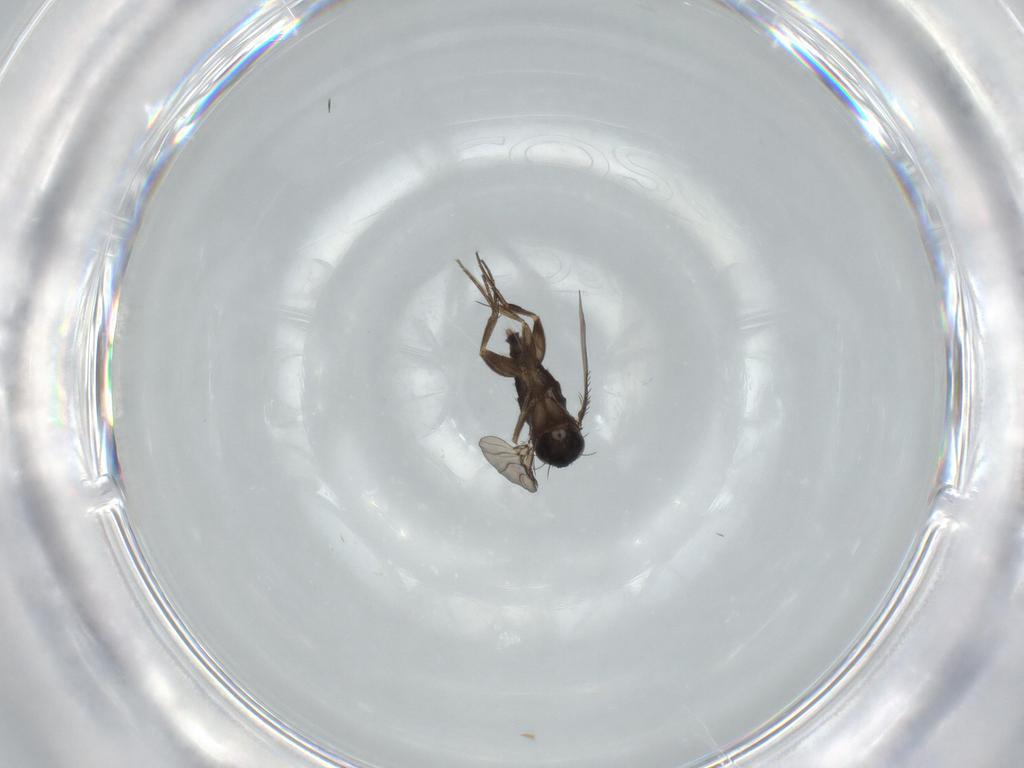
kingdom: Animalia
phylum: Arthropoda
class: Insecta
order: Diptera
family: Phoridae
